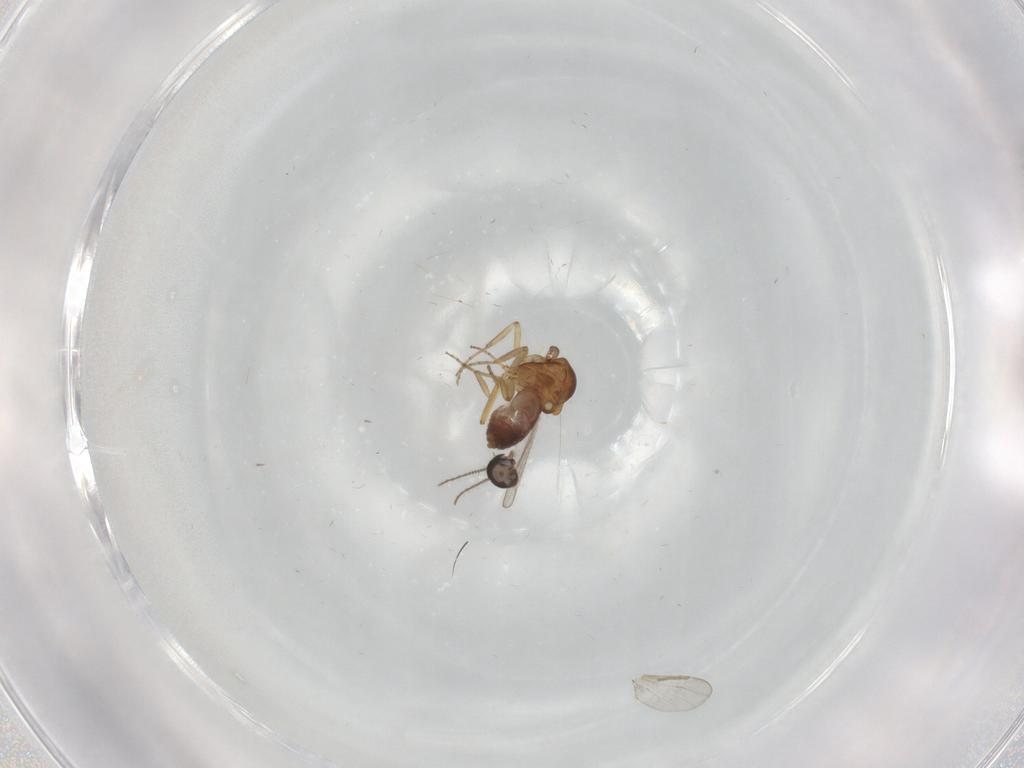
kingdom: Animalia
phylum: Arthropoda
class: Insecta
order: Diptera
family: Ceratopogonidae
